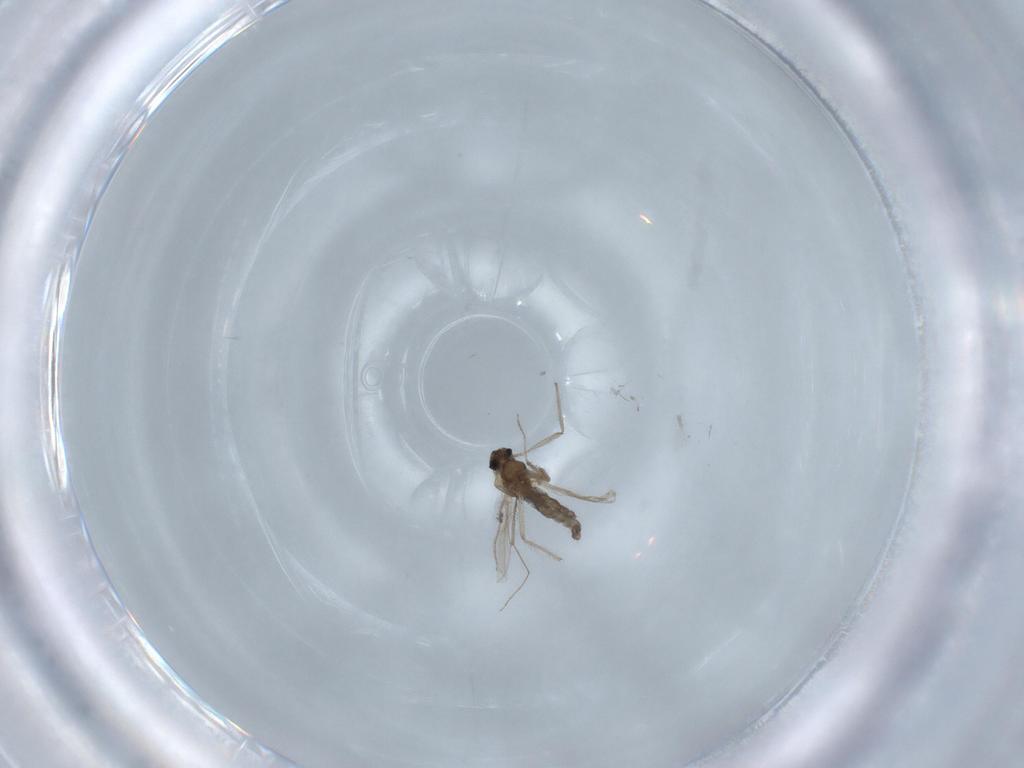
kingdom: Animalia
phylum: Arthropoda
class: Insecta
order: Diptera
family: Chironomidae
